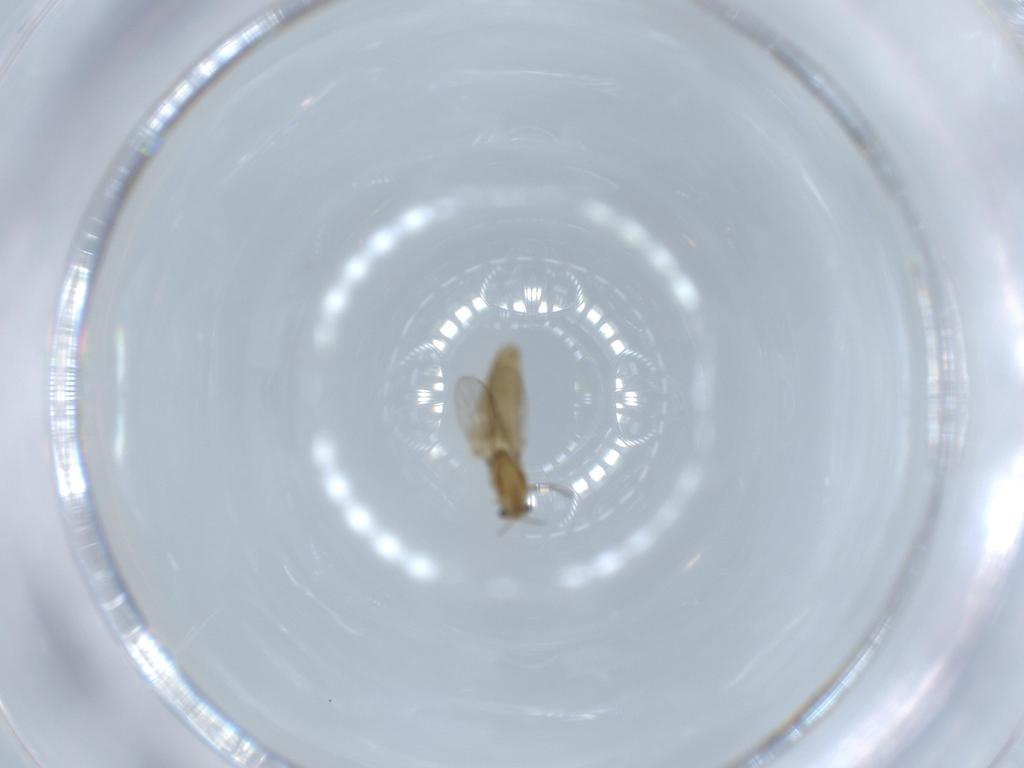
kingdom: Animalia
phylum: Arthropoda
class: Insecta
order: Diptera
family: Chironomidae
